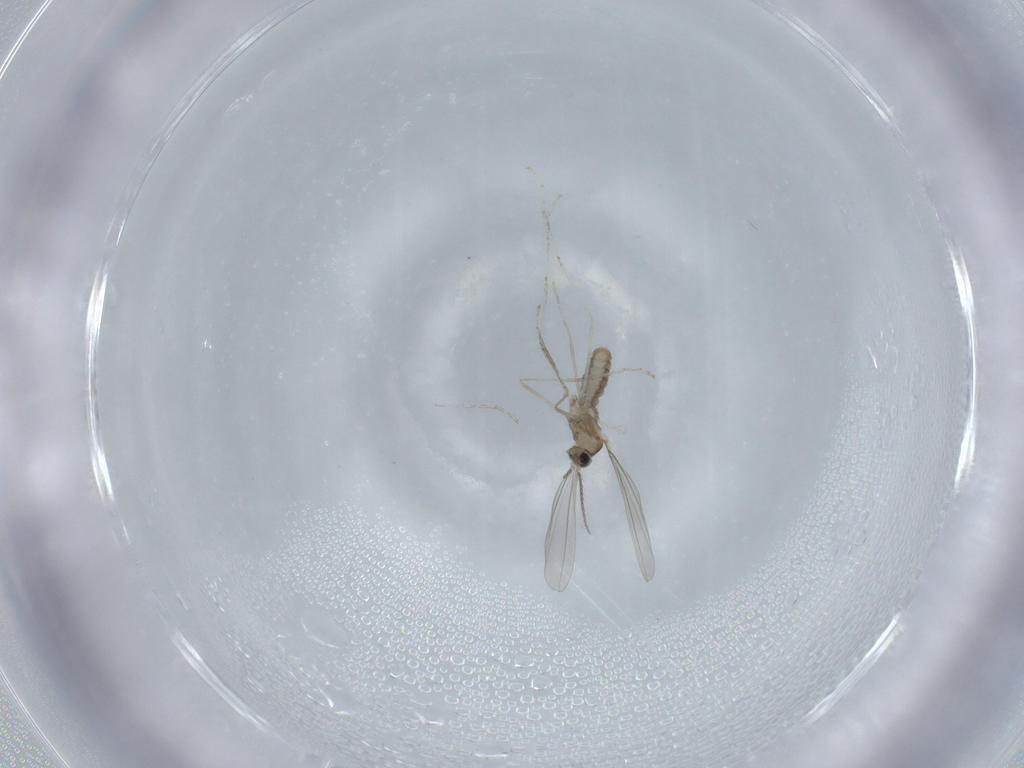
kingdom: Animalia
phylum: Arthropoda
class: Insecta
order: Diptera
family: Cecidomyiidae
